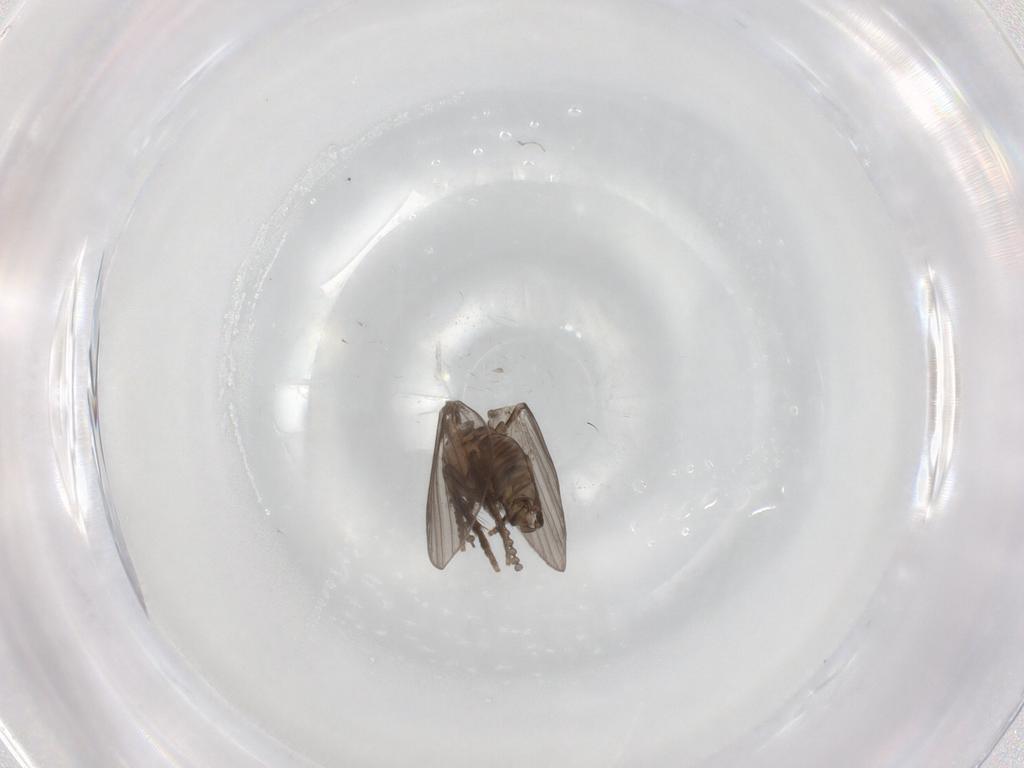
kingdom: Animalia
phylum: Arthropoda
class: Insecta
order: Diptera
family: Psychodidae
